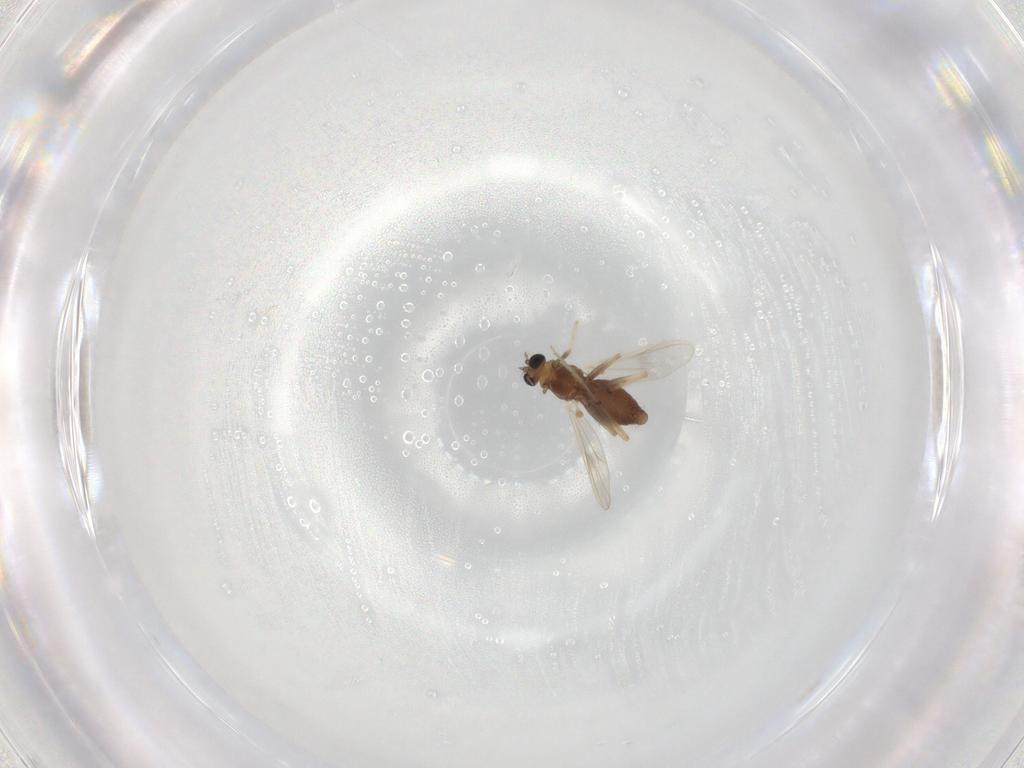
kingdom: Animalia
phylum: Arthropoda
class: Insecta
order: Diptera
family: Chironomidae
